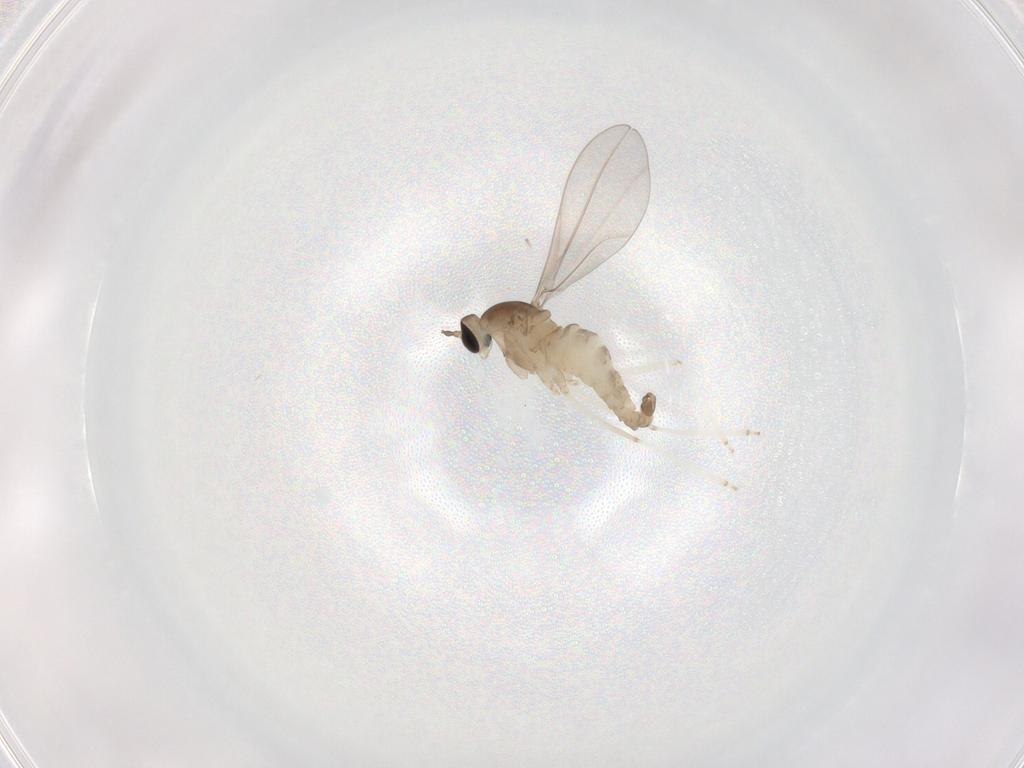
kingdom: Animalia
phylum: Arthropoda
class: Insecta
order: Diptera
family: Cecidomyiidae
